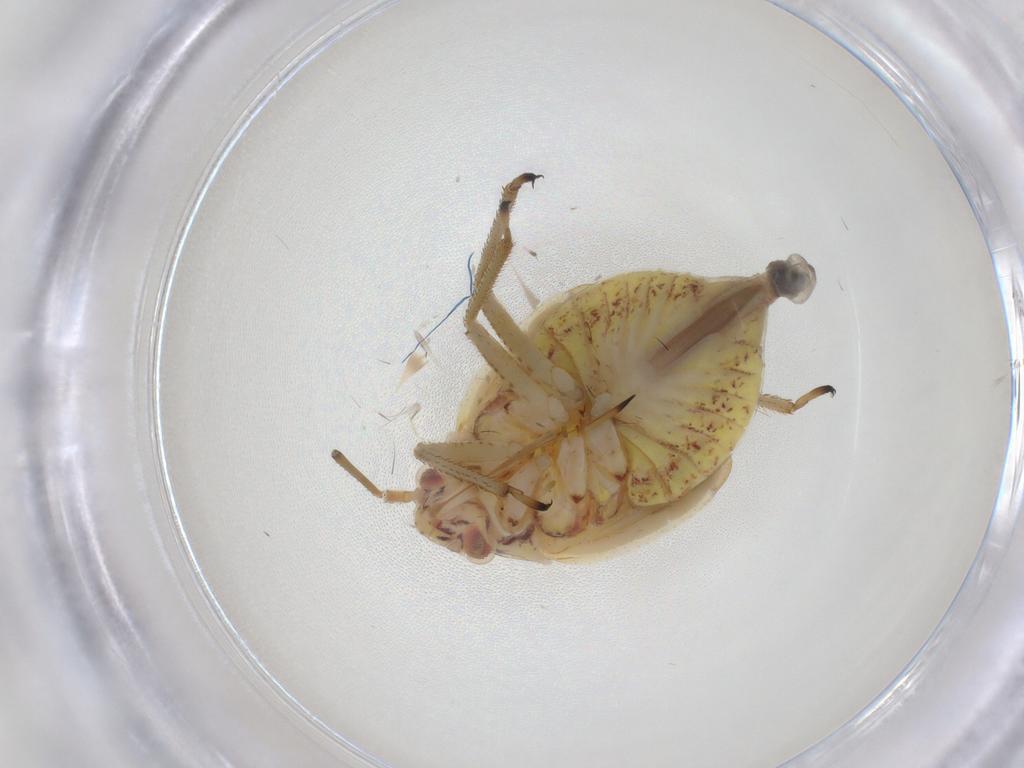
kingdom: Animalia
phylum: Arthropoda
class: Insecta
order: Hemiptera
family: Miridae
